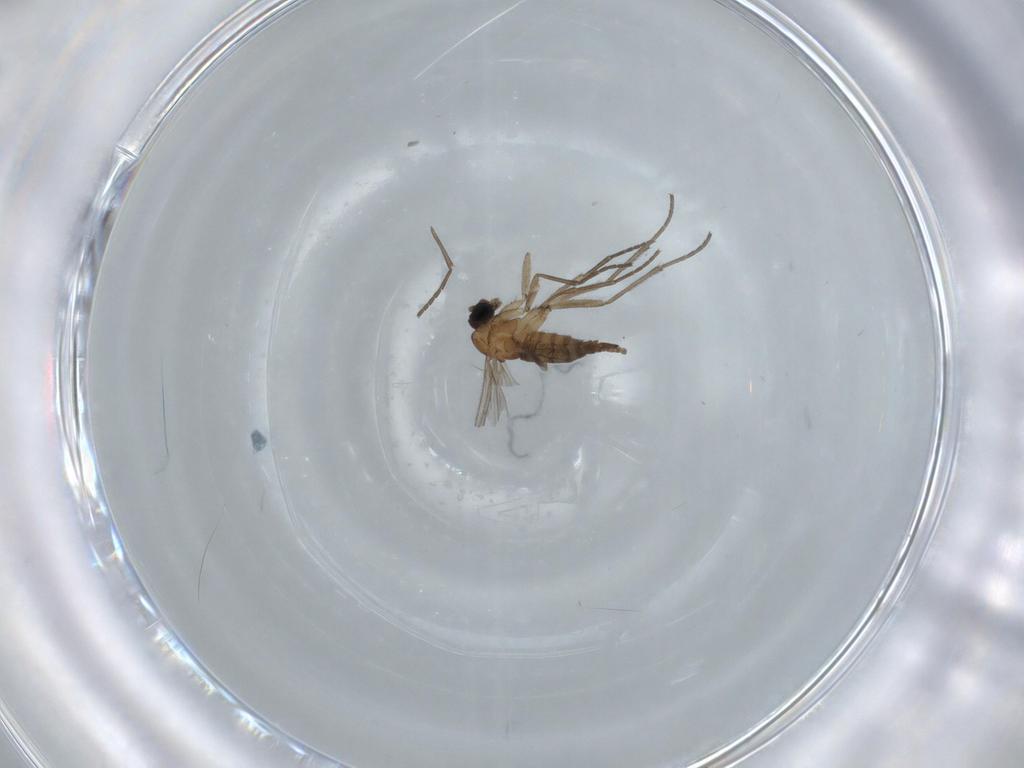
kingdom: Animalia
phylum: Arthropoda
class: Insecta
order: Diptera
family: Sciaridae
